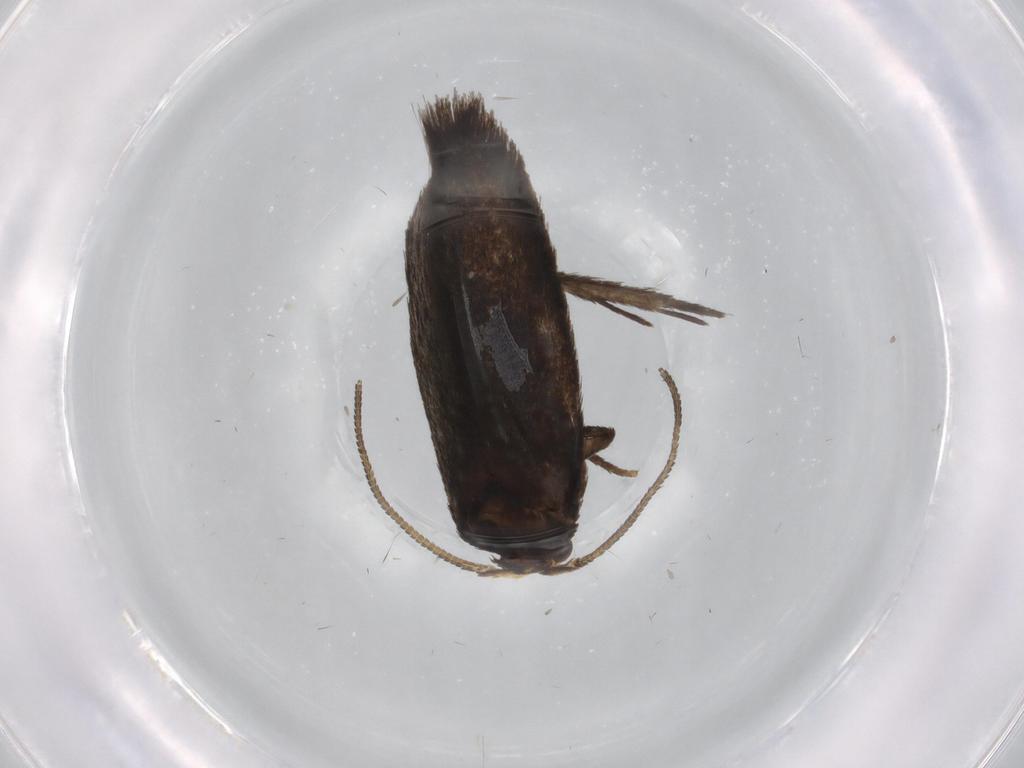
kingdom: Animalia
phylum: Arthropoda
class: Insecta
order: Lepidoptera
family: Nepticulidae
